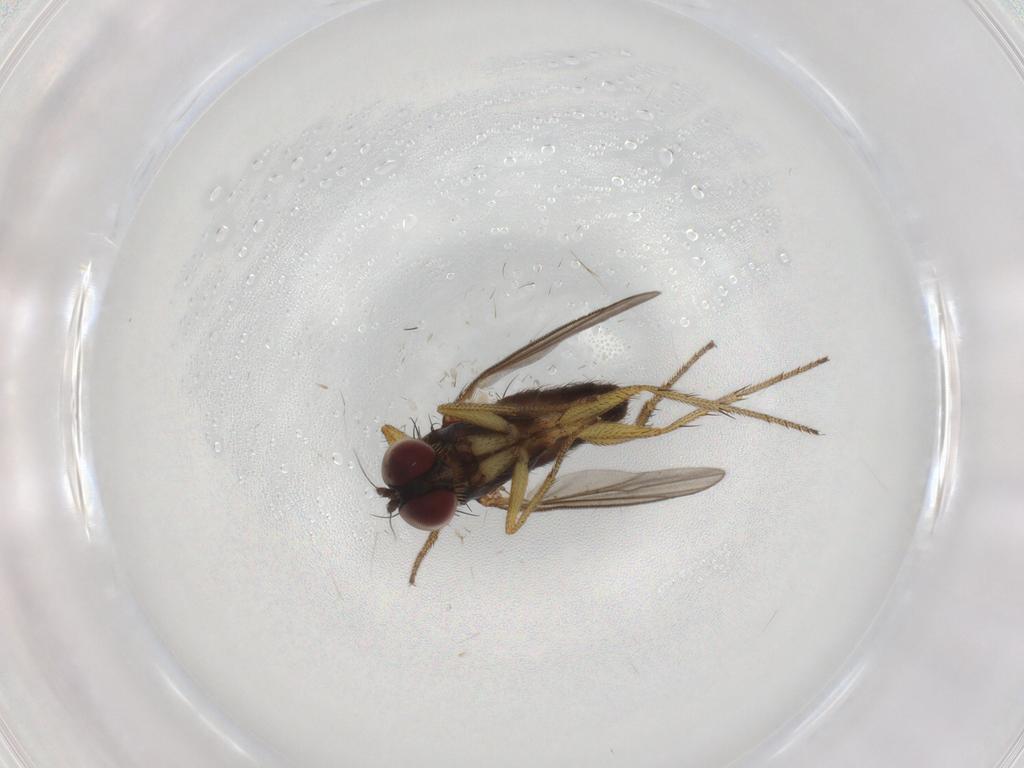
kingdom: Animalia
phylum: Arthropoda
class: Insecta
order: Diptera
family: Dolichopodidae
